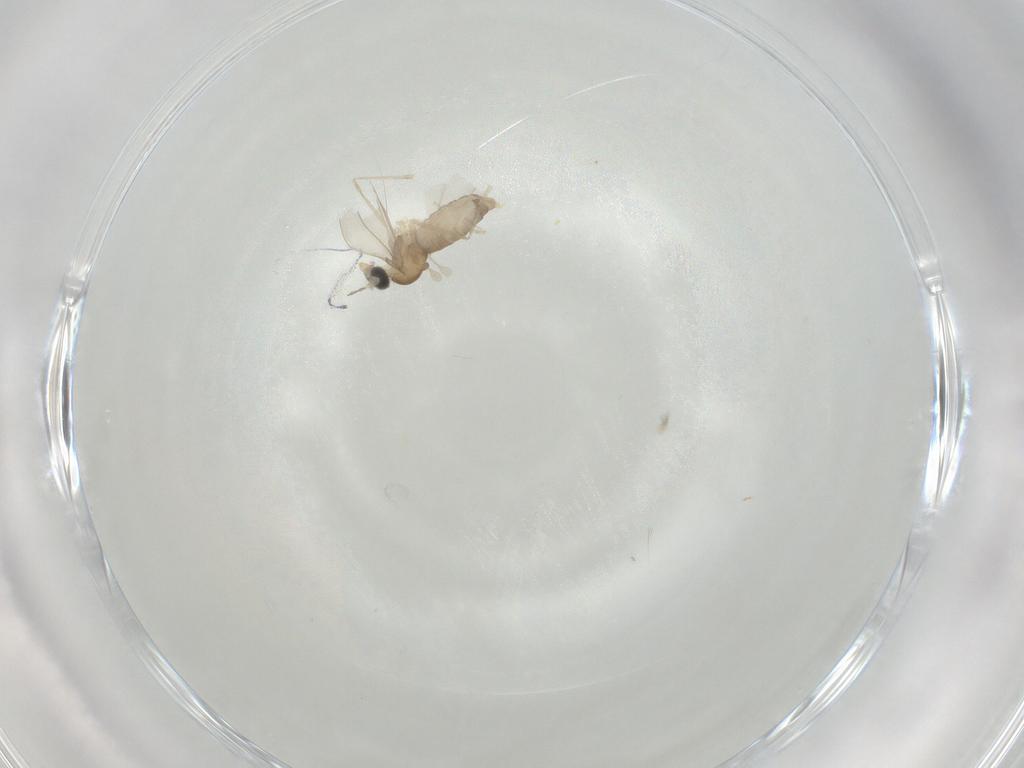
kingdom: Animalia
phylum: Arthropoda
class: Insecta
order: Diptera
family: Cecidomyiidae
